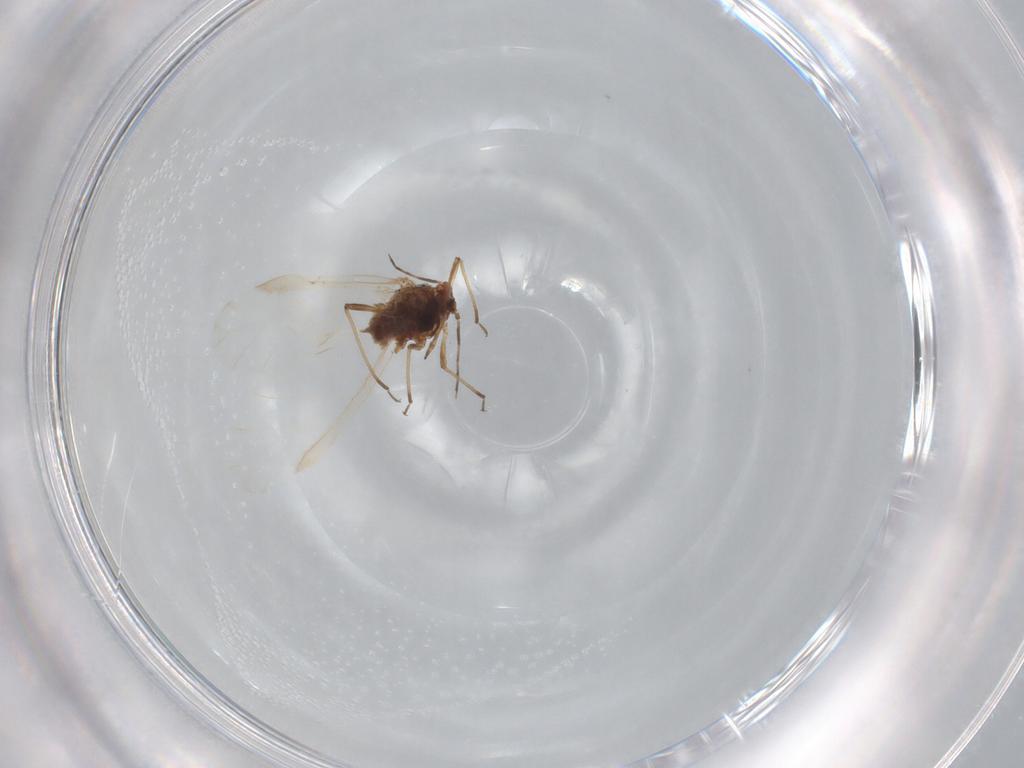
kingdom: Animalia
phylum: Arthropoda
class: Insecta
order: Hemiptera
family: Aphididae
